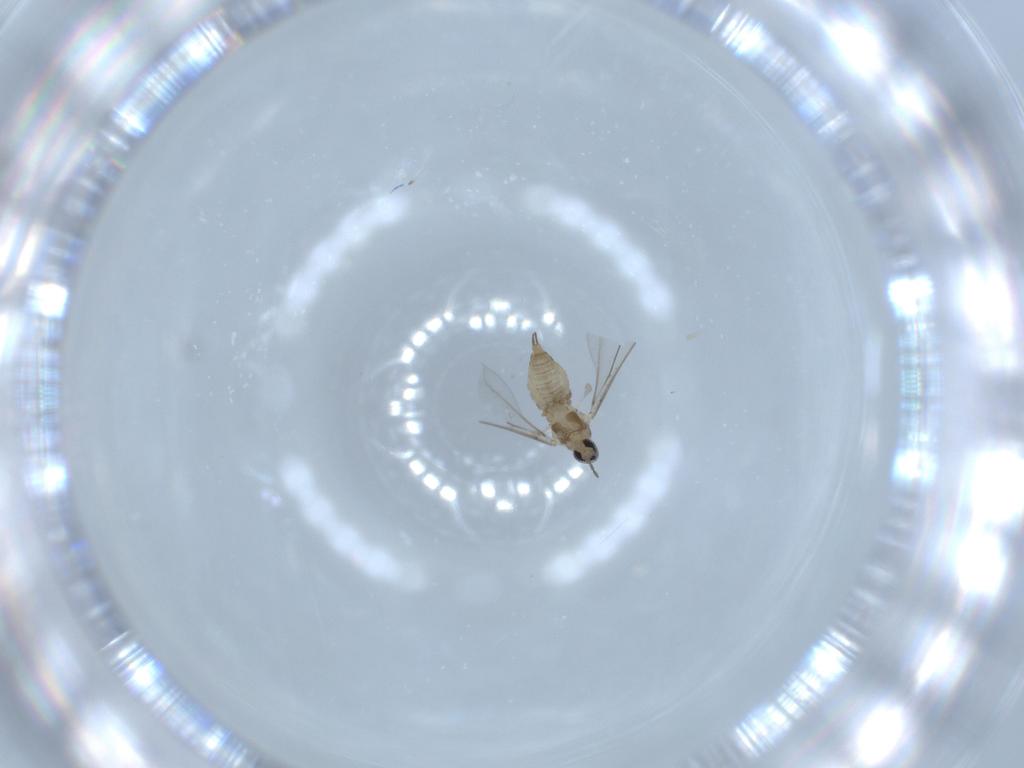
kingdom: Animalia
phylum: Arthropoda
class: Insecta
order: Diptera
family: Cecidomyiidae
